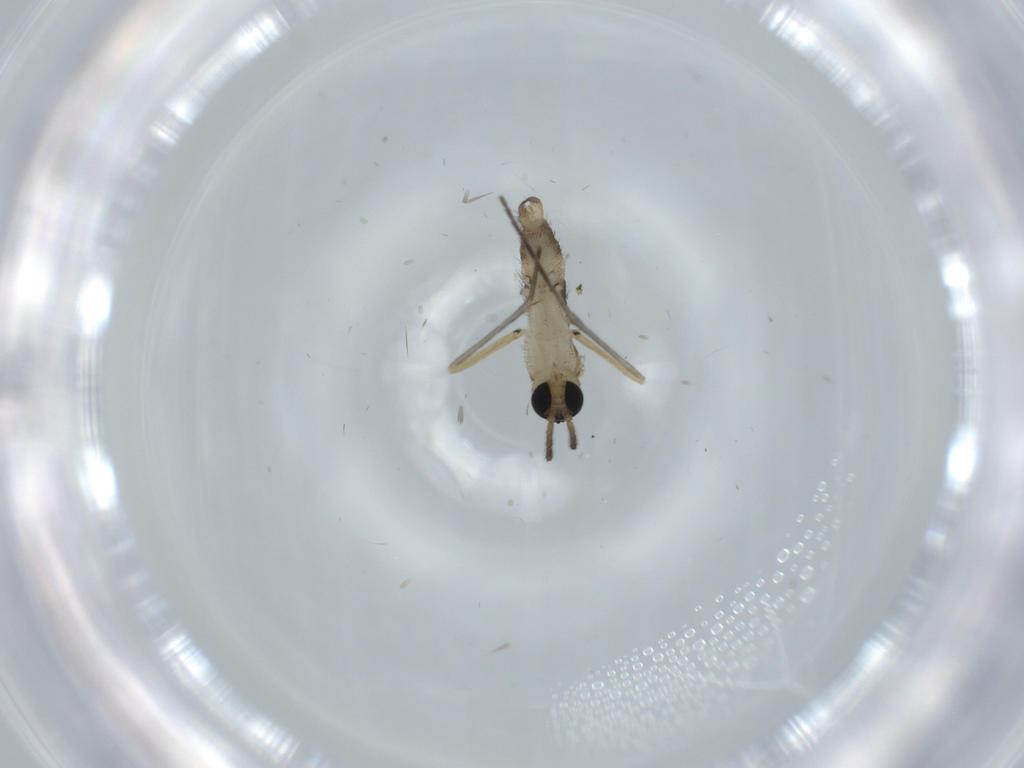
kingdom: Animalia
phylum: Arthropoda
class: Insecta
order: Diptera
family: Sciaridae
